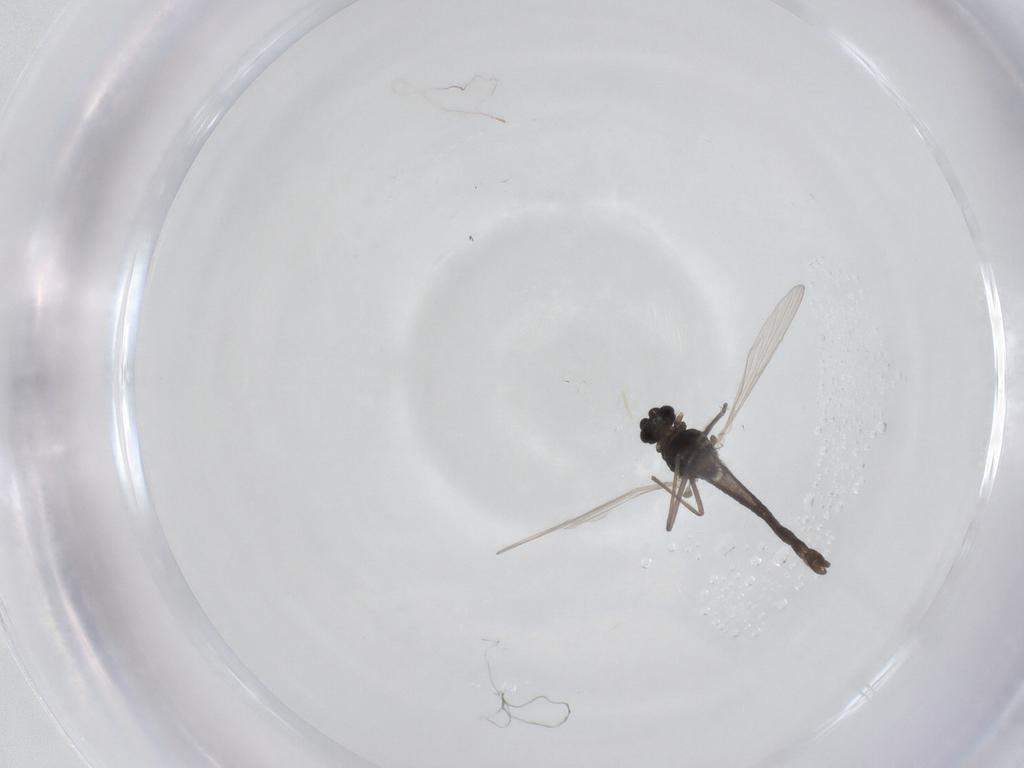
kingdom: Animalia
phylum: Arthropoda
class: Insecta
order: Diptera
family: Chironomidae
